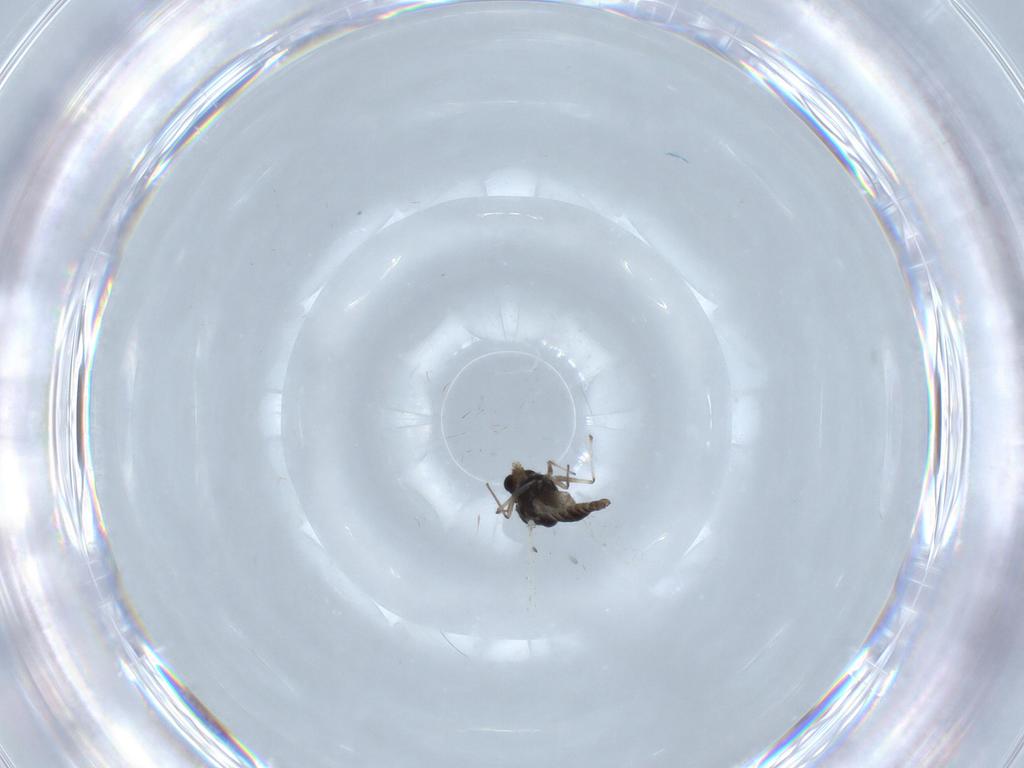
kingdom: Animalia
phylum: Arthropoda
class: Insecta
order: Diptera
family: Chironomidae
